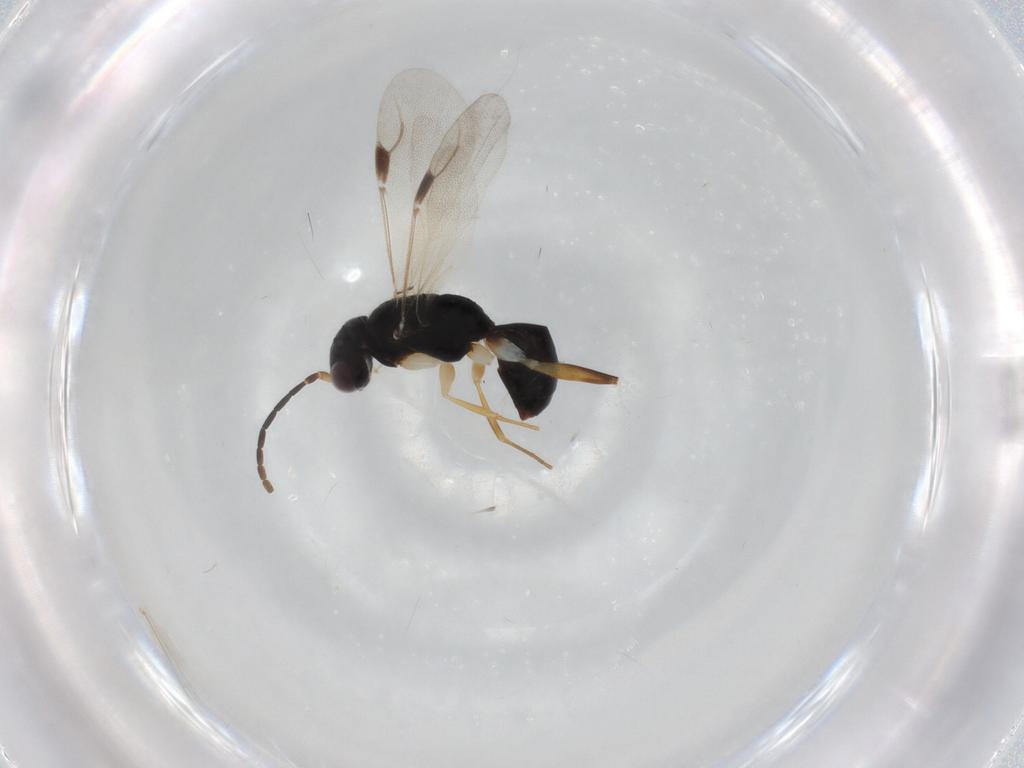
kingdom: Animalia
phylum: Arthropoda
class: Insecta
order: Hymenoptera
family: Dryinidae
